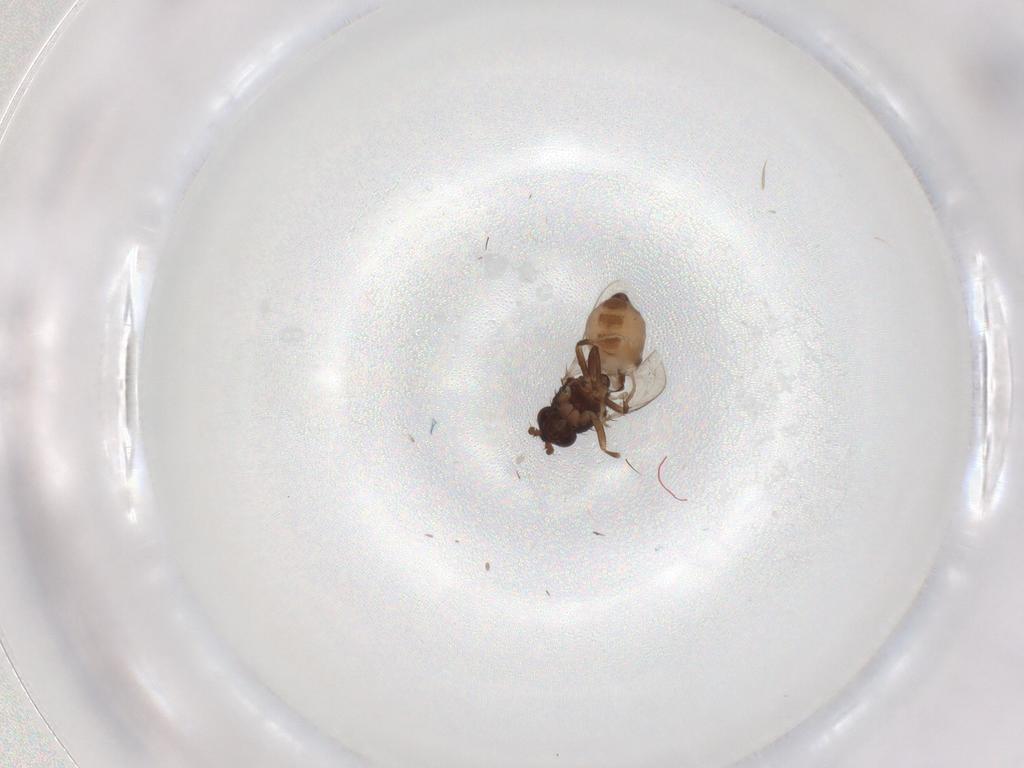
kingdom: Animalia
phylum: Arthropoda
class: Insecta
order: Diptera
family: Sphaeroceridae
